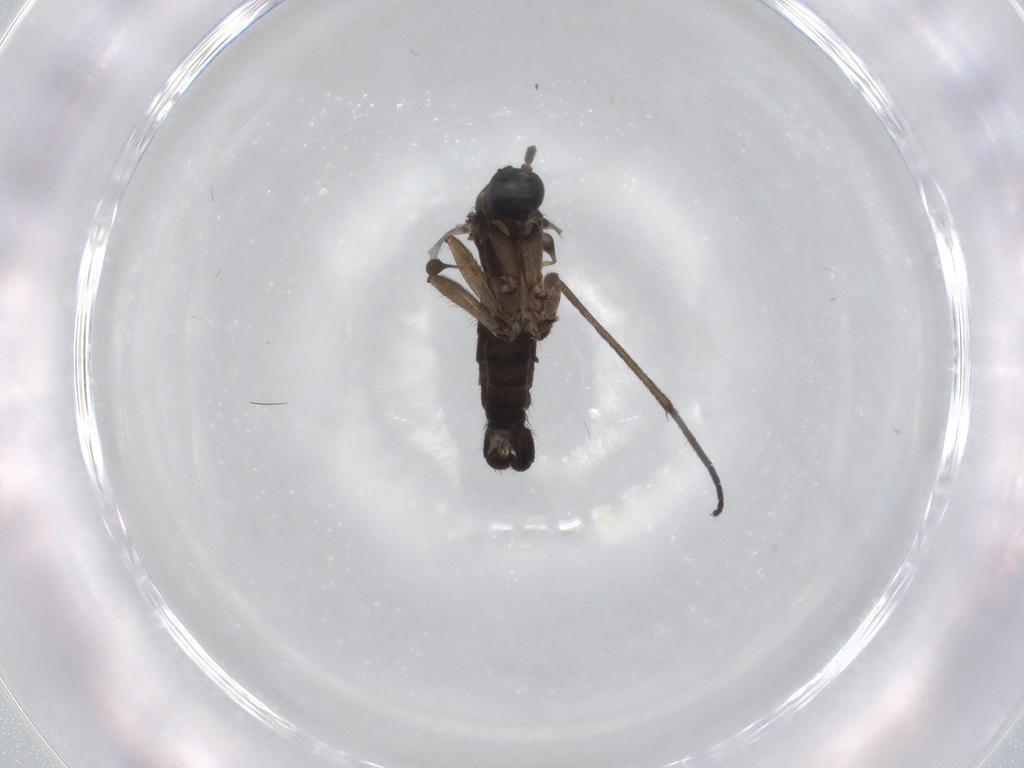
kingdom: Animalia
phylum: Arthropoda
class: Insecta
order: Diptera
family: Sciaridae
